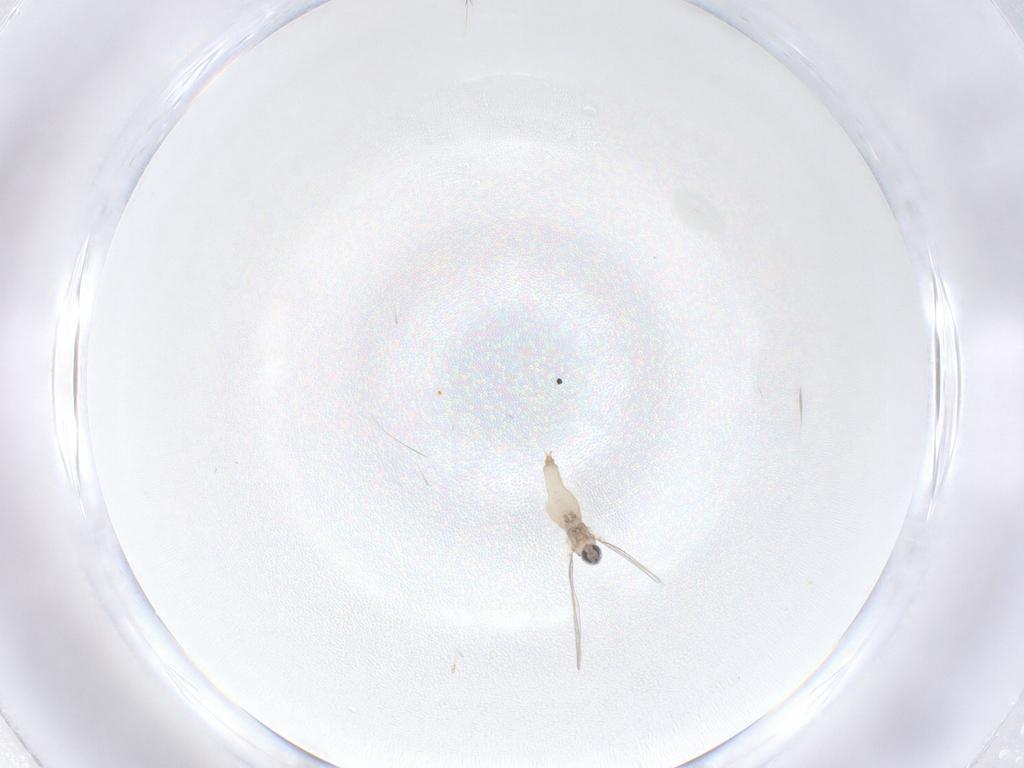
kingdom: Animalia
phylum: Arthropoda
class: Insecta
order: Diptera
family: Cecidomyiidae
